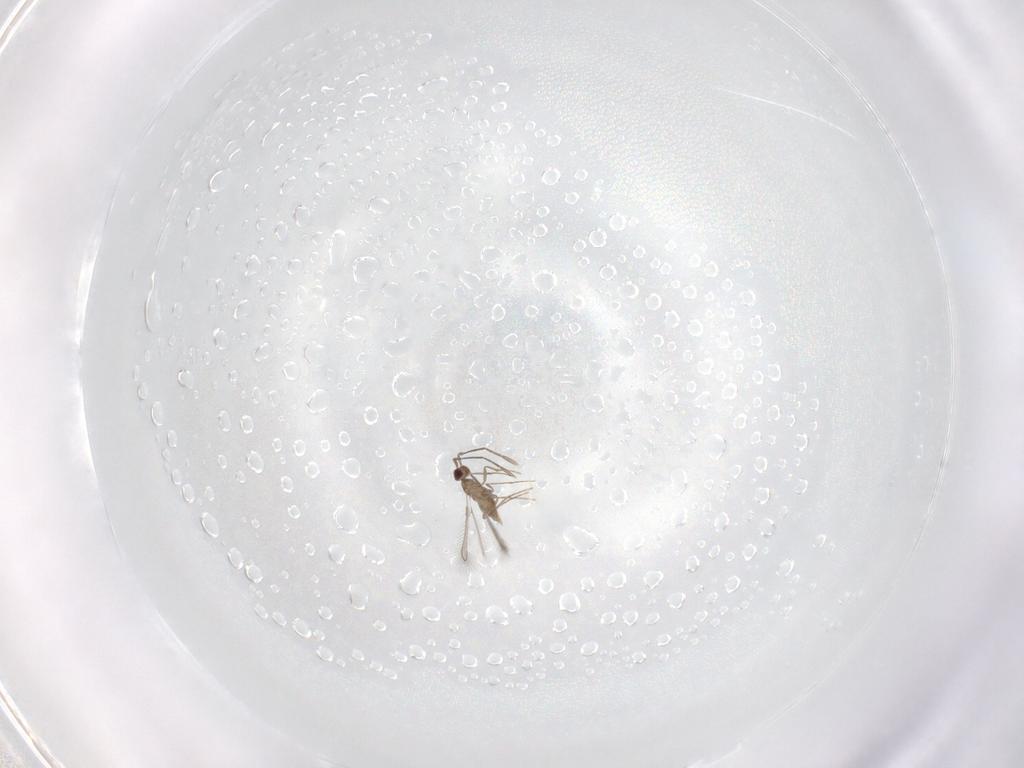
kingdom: Animalia
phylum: Arthropoda
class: Insecta
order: Hymenoptera
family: Mymaridae
